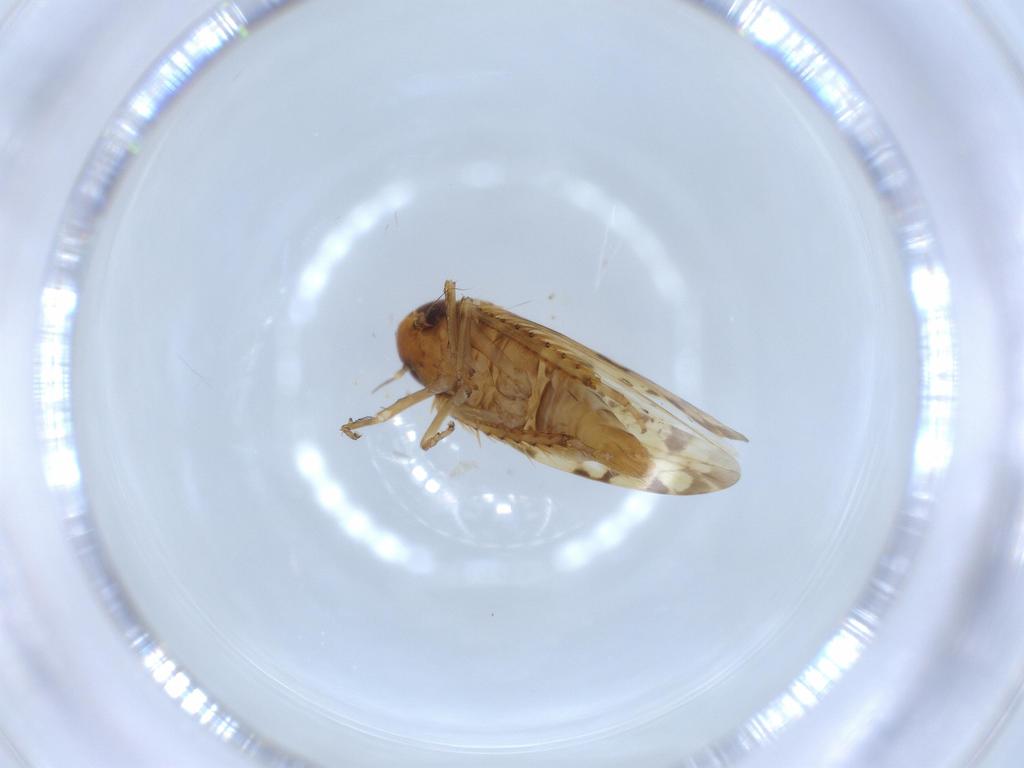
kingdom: Animalia
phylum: Arthropoda
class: Insecta
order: Hemiptera
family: Cicadellidae
